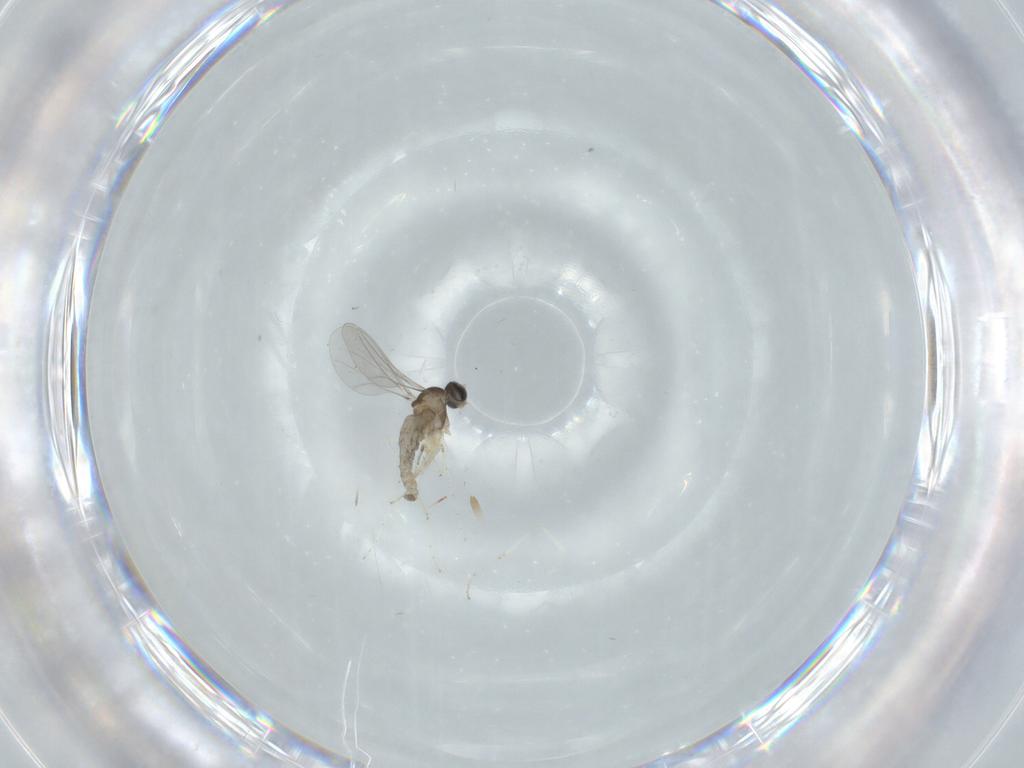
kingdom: Animalia
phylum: Arthropoda
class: Insecta
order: Diptera
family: Cecidomyiidae
